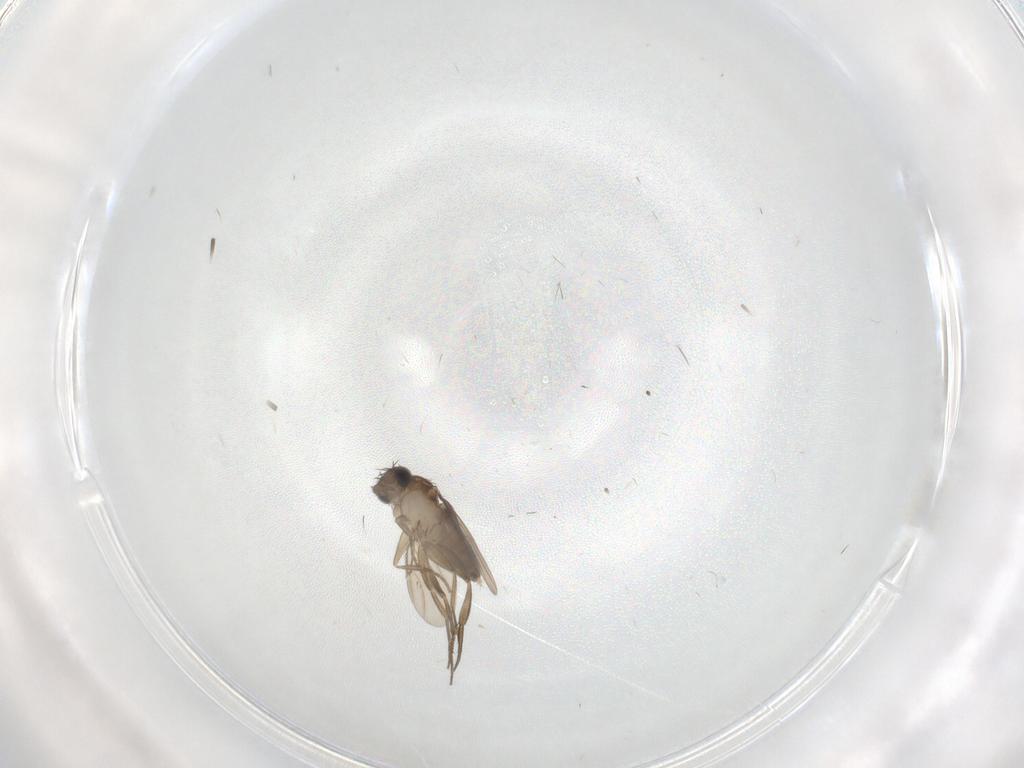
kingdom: Animalia
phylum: Arthropoda
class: Insecta
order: Diptera
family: Phoridae
